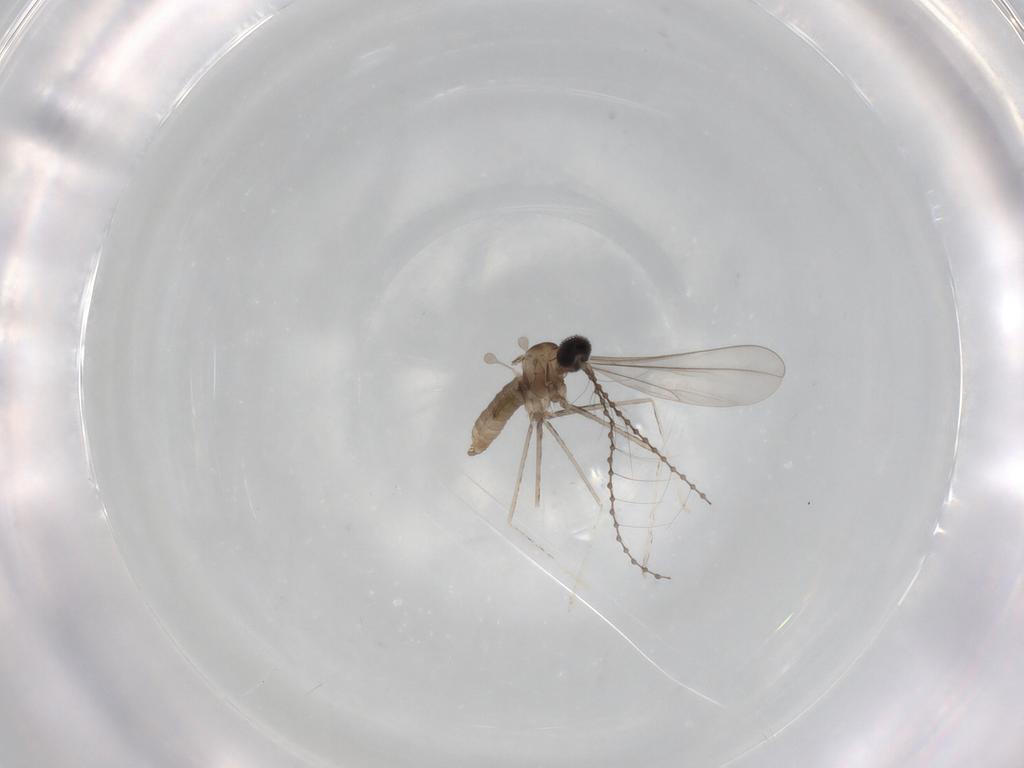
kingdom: Animalia
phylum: Arthropoda
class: Insecta
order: Diptera
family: Cecidomyiidae
